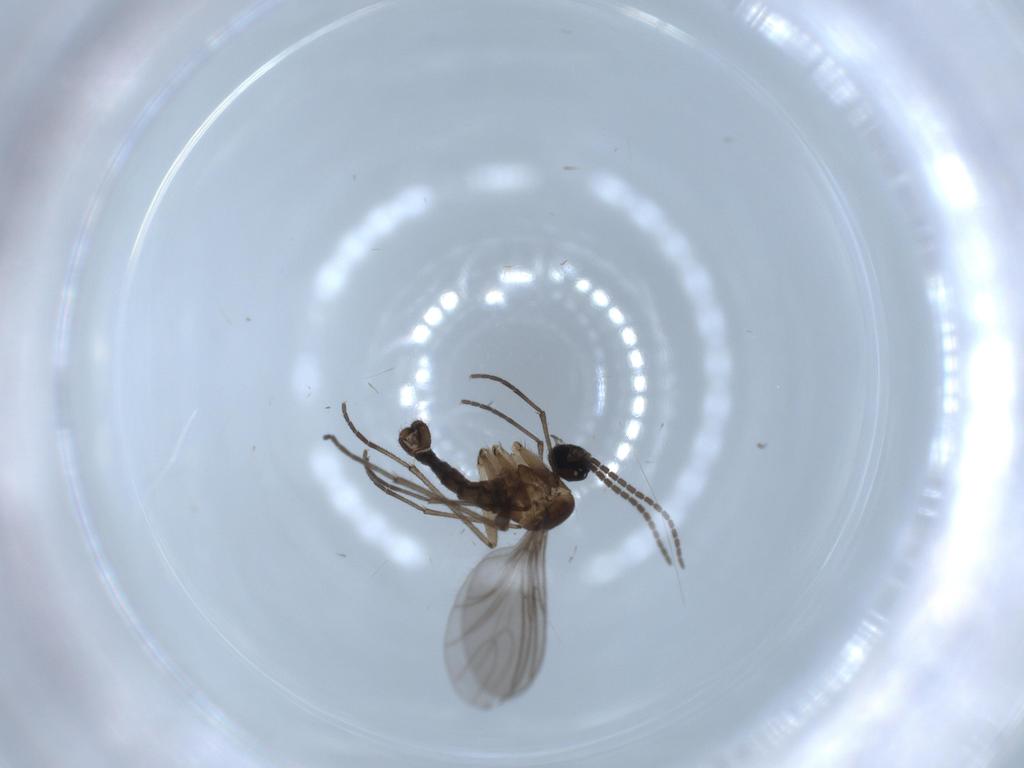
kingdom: Animalia
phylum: Arthropoda
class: Insecta
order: Diptera
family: Sciaridae
